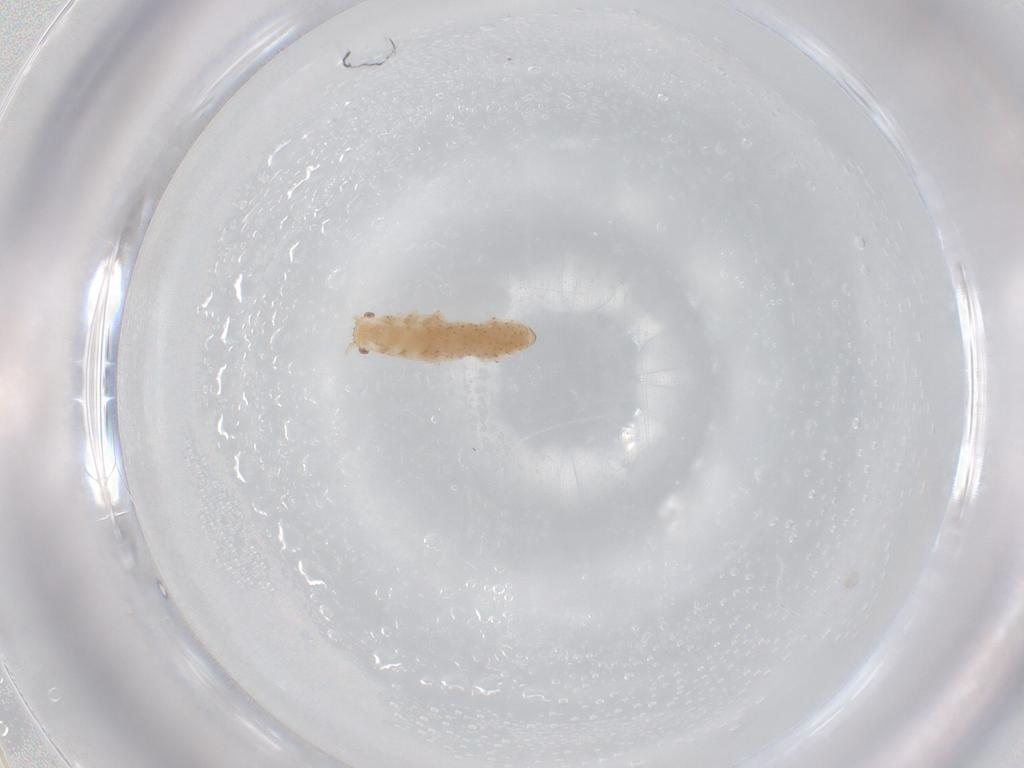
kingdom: Animalia
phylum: Arthropoda
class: Insecta
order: Hemiptera
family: Aphididae
